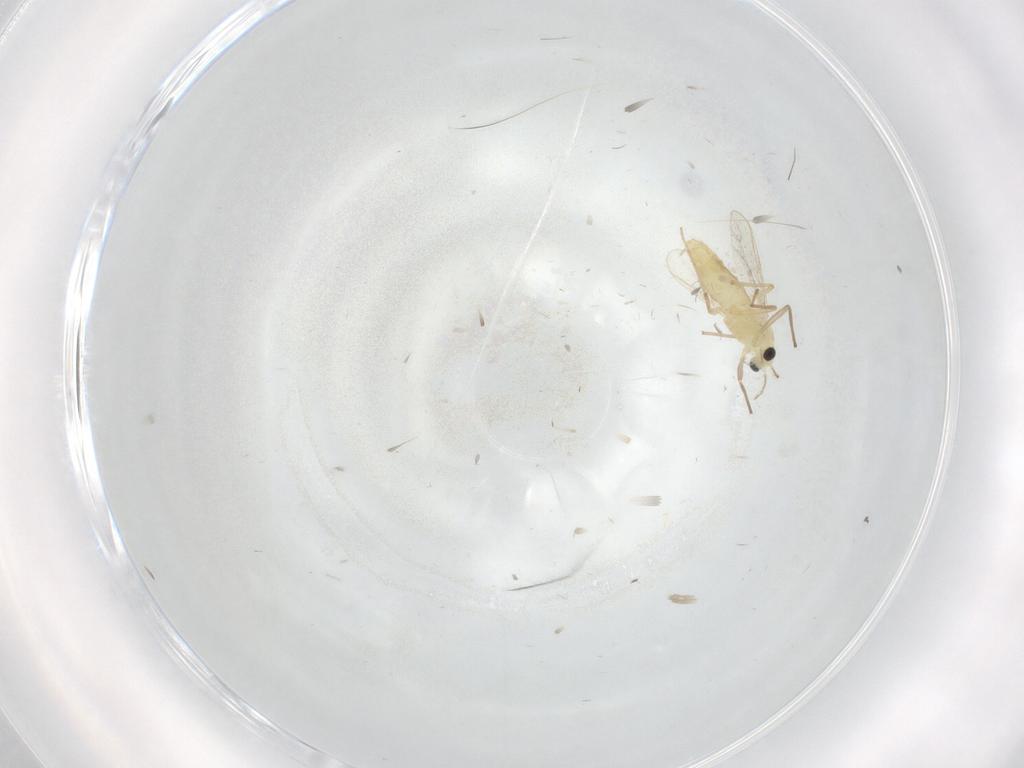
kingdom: Animalia
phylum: Arthropoda
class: Insecta
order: Diptera
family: Chironomidae
